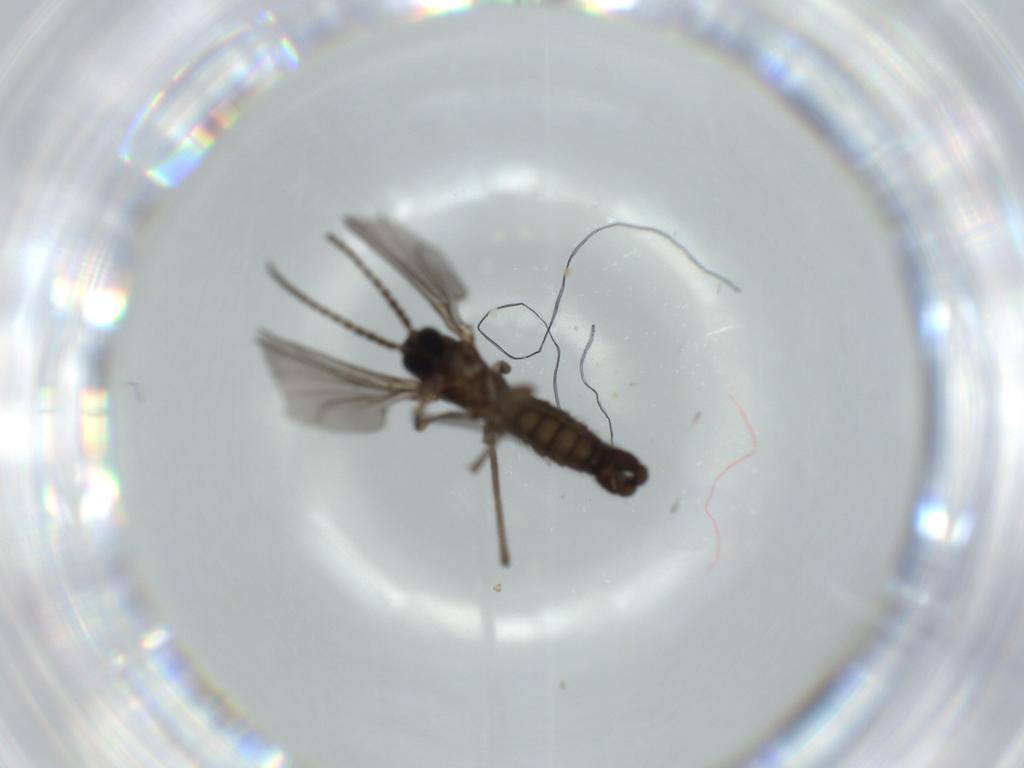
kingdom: Animalia
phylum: Arthropoda
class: Insecta
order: Diptera
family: Sciaridae
